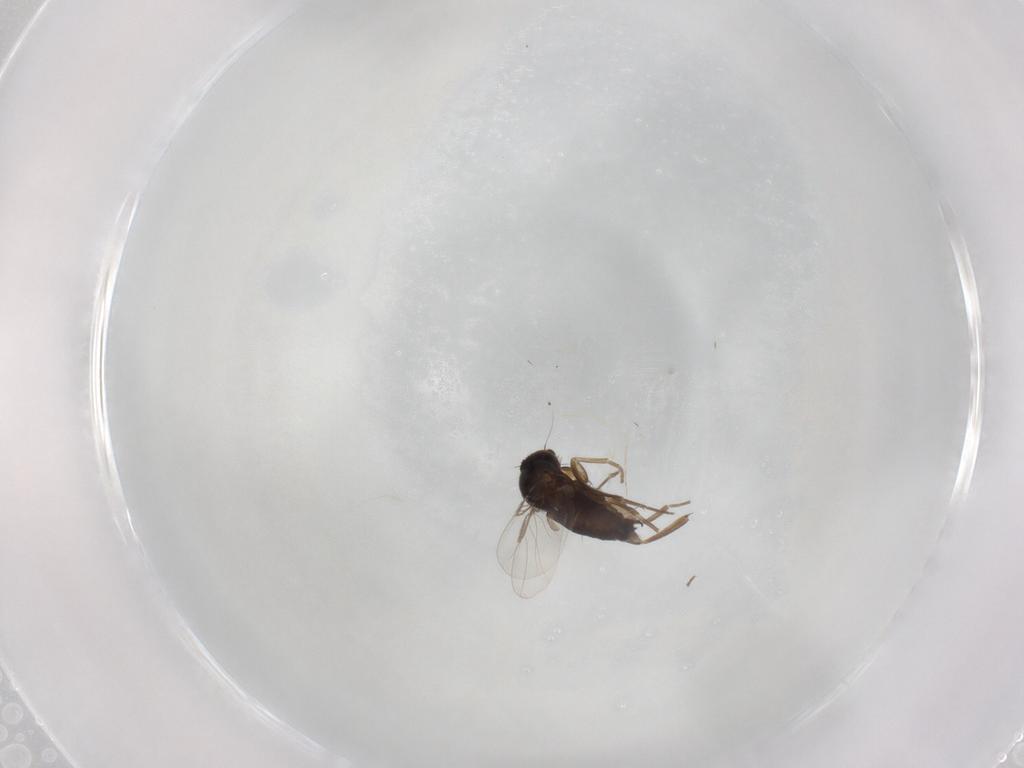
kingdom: Animalia
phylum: Arthropoda
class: Insecta
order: Diptera
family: Phoridae
